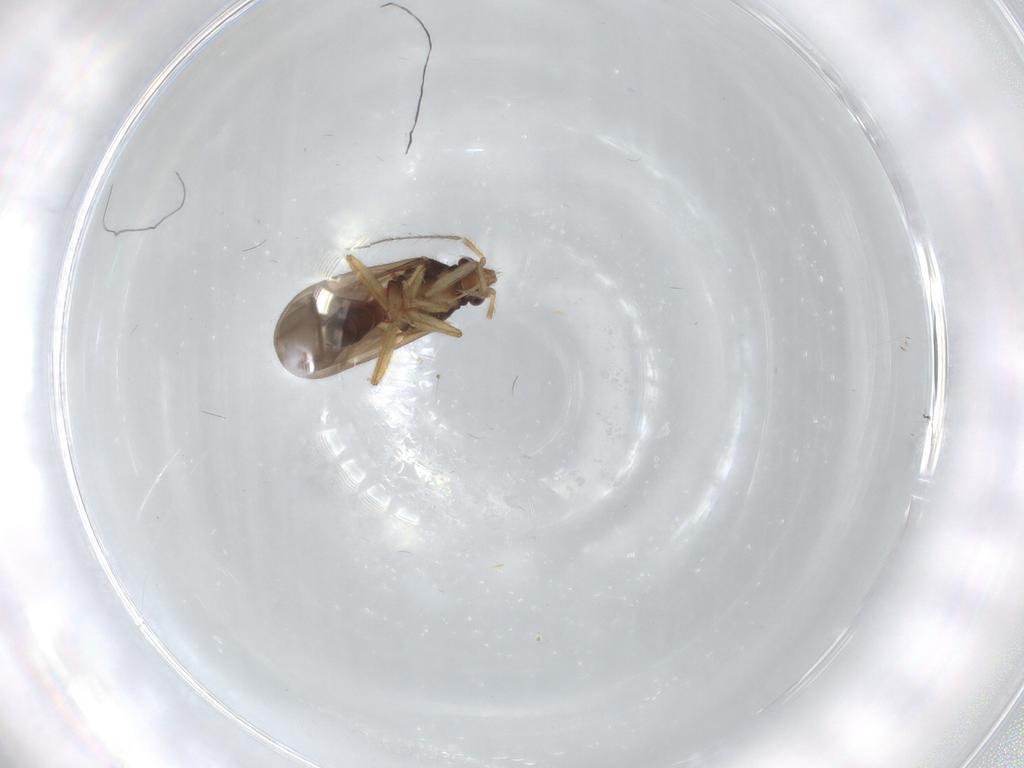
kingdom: Animalia
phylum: Arthropoda
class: Insecta
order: Hemiptera
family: Ceratocombidae
